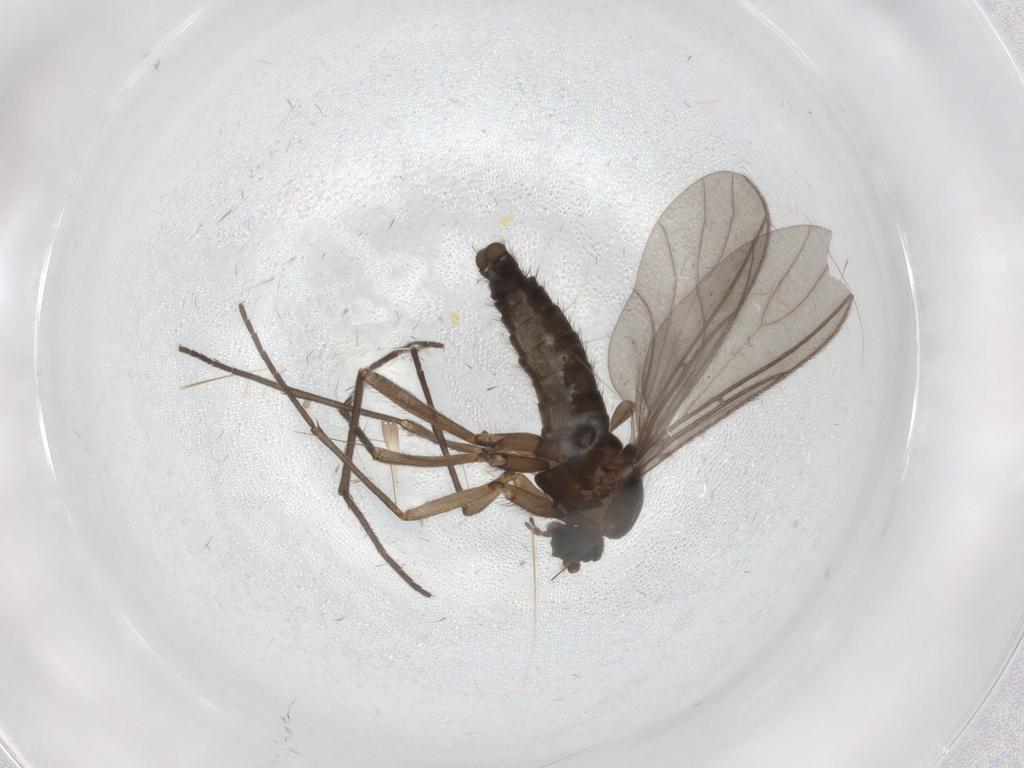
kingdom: Animalia
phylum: Arthropoda
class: Insecta
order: Diptera
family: Sciaridae
